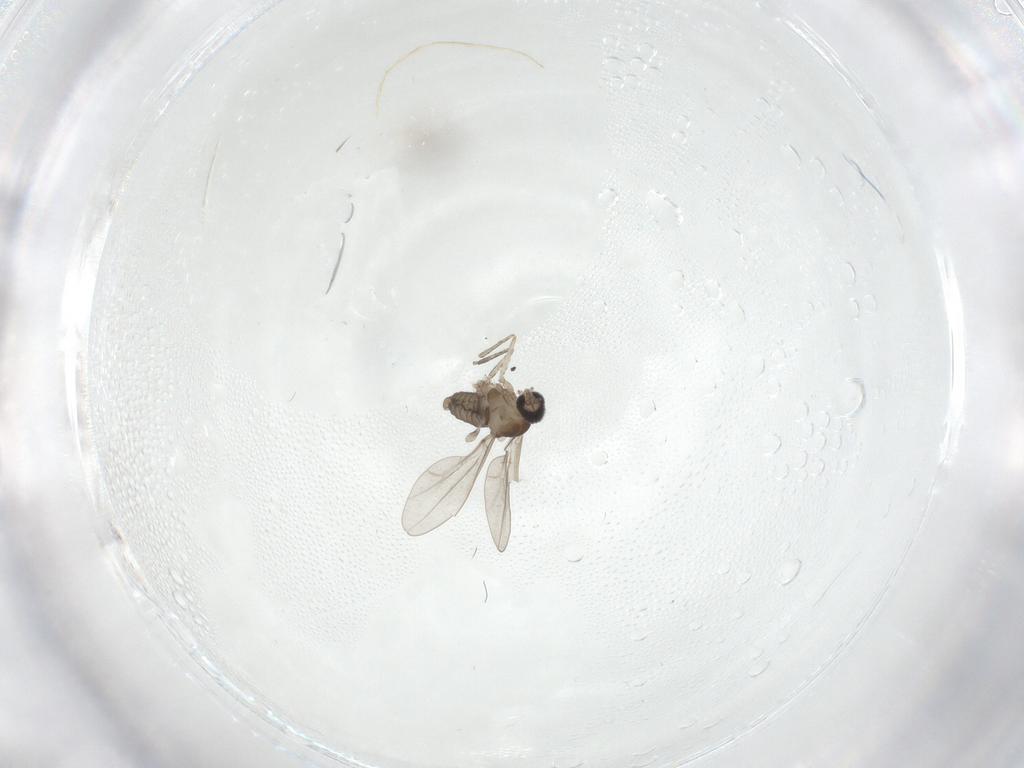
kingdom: Animalia
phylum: Arthropoda
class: Insecta
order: Diptera
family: Cecidomyiidae
